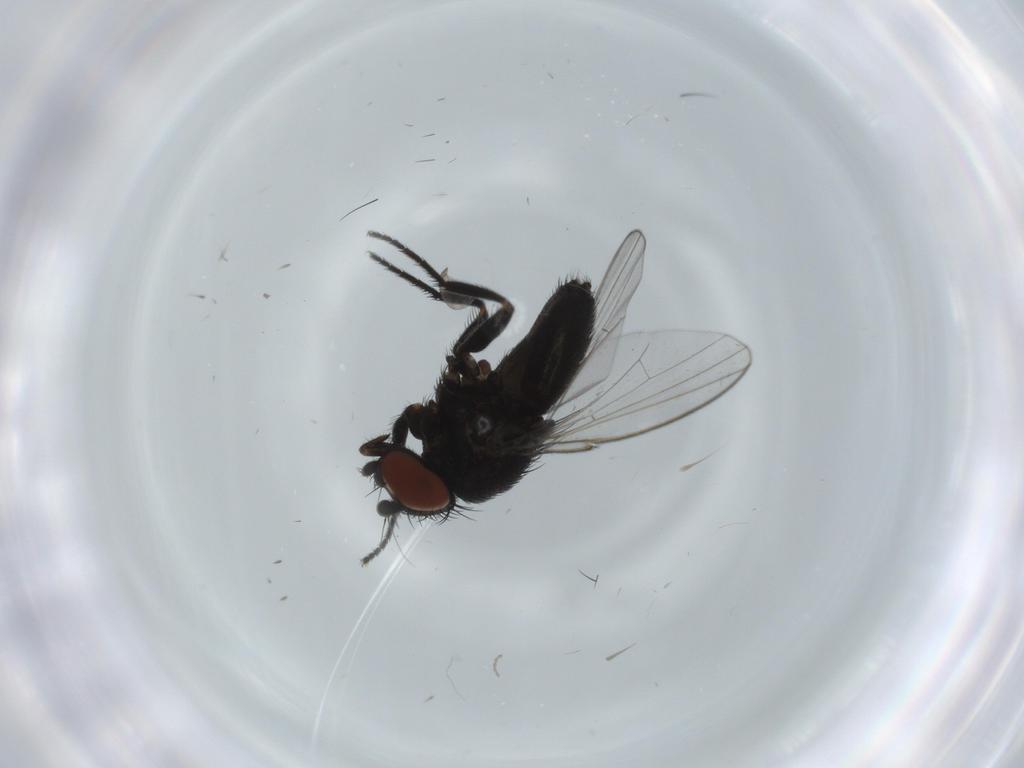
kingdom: Animalia
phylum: Arthropoda
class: Insecta
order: Diptera
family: Milichiidae
